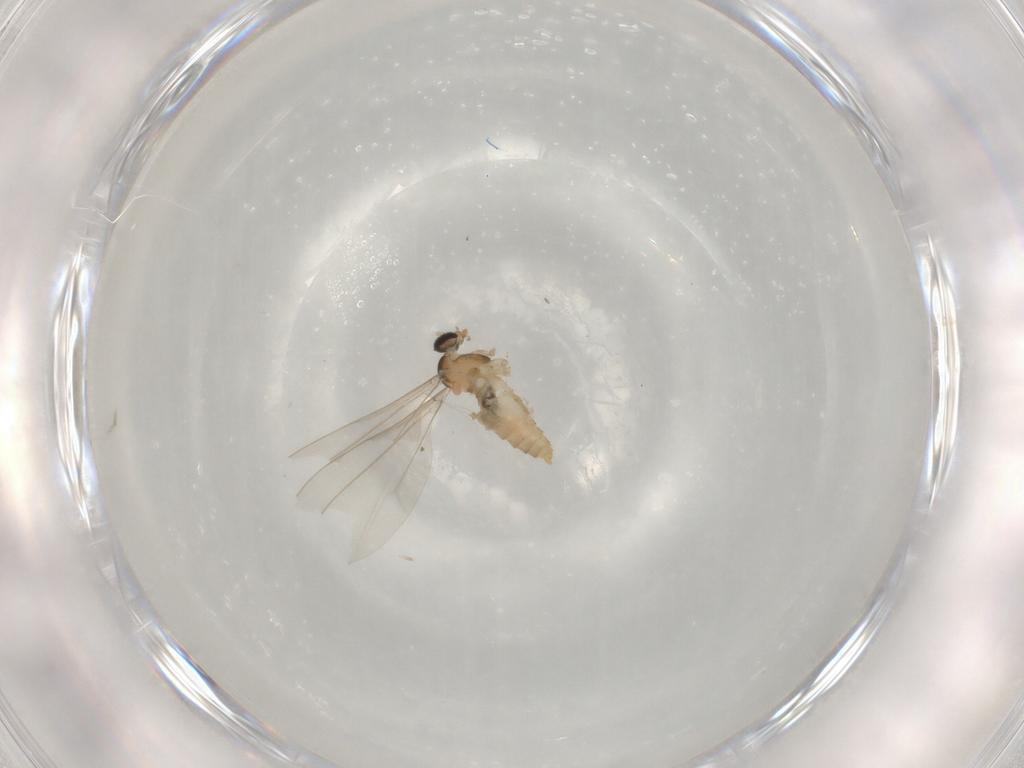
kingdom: Animalia
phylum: Arthropoda
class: Insecta
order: Diptera
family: Cecidomyiidae
